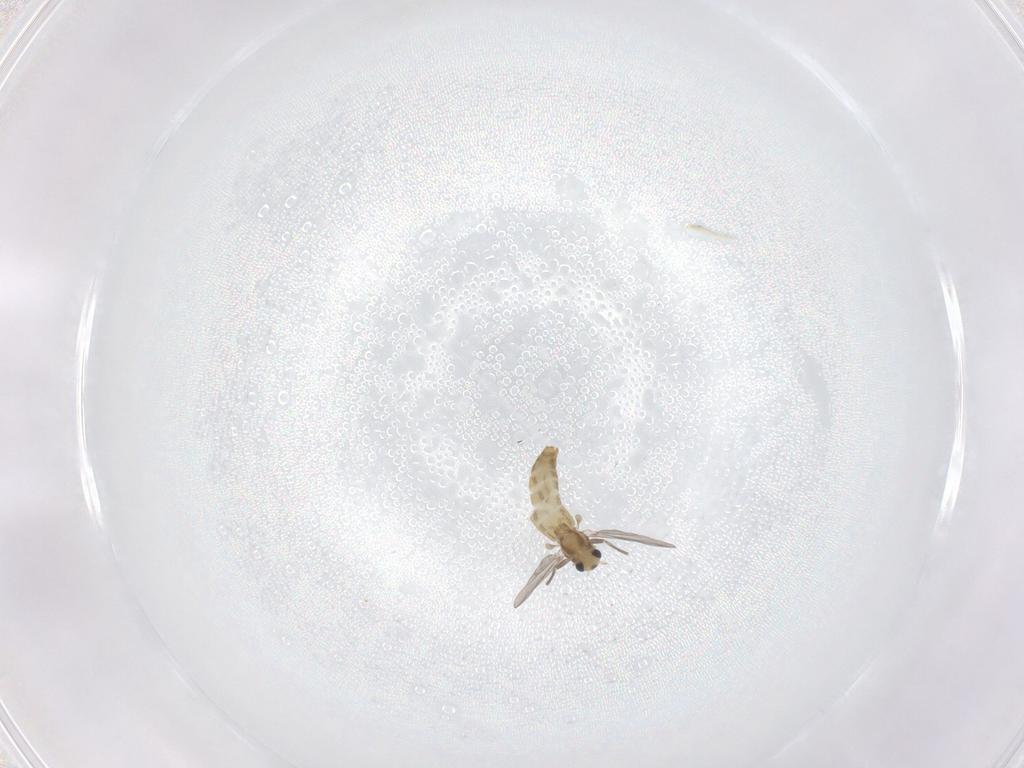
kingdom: Animalia
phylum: Arthropoda
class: Insecta
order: Diptera
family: Chironomidae
